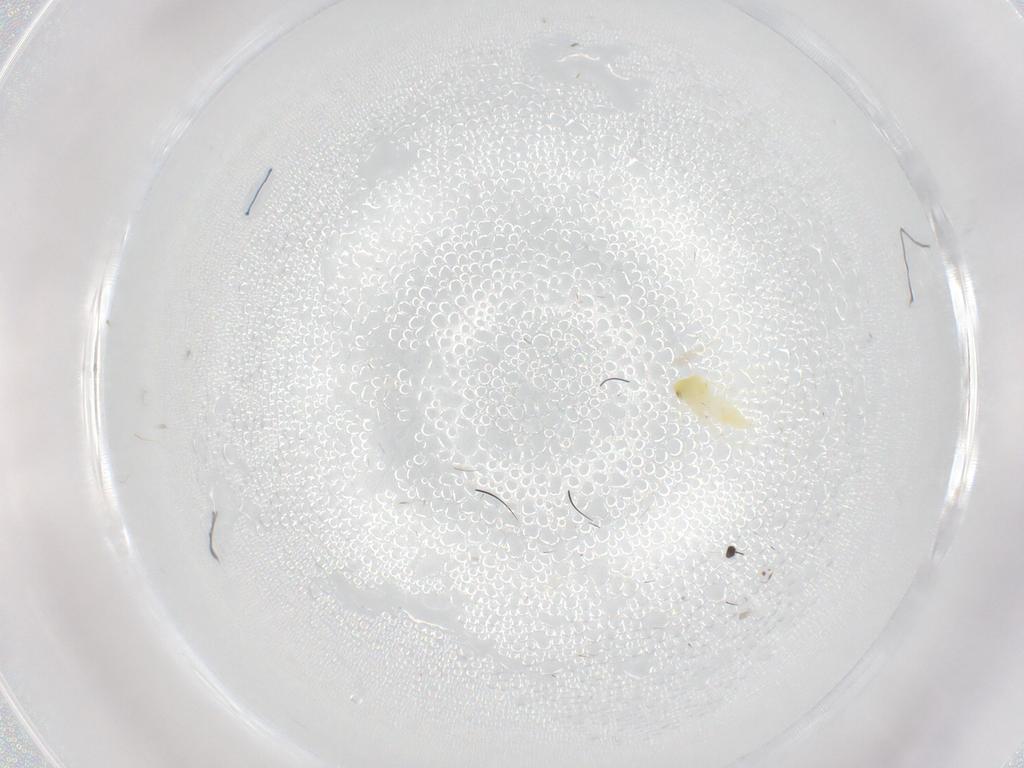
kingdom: Animalia
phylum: Arthropoda
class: Insecta
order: Hemiptera
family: Aleyrodidae
